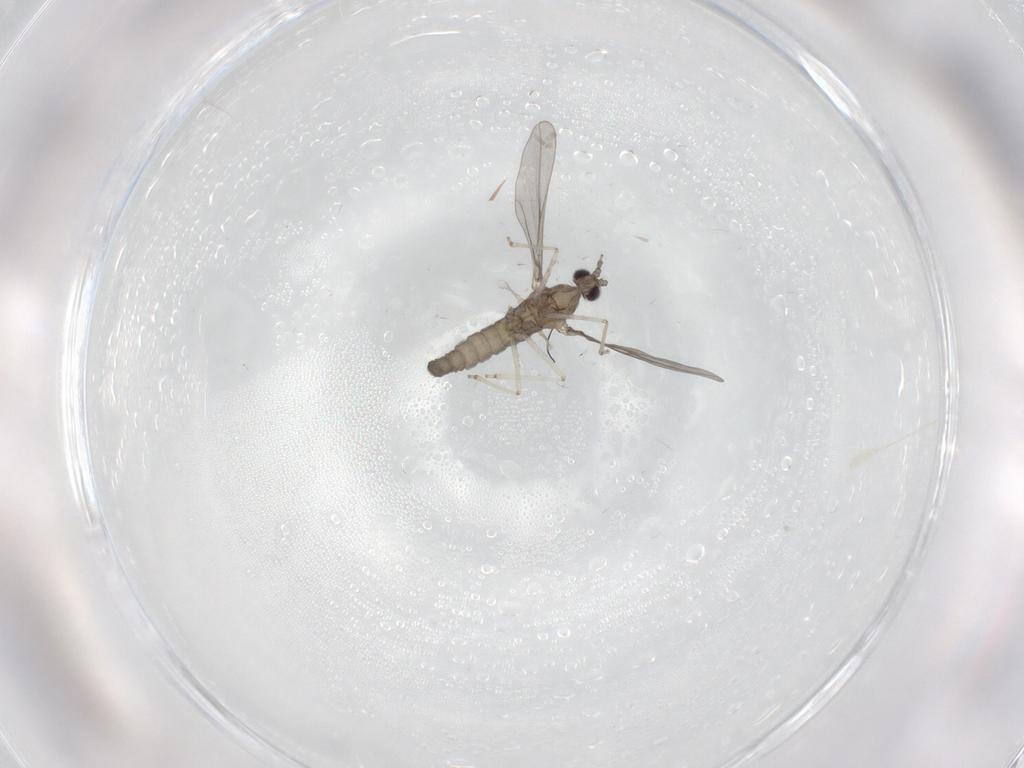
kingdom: Animalia
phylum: Arthropoda
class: Insecta
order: Diptera
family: Cecidomyiidae
